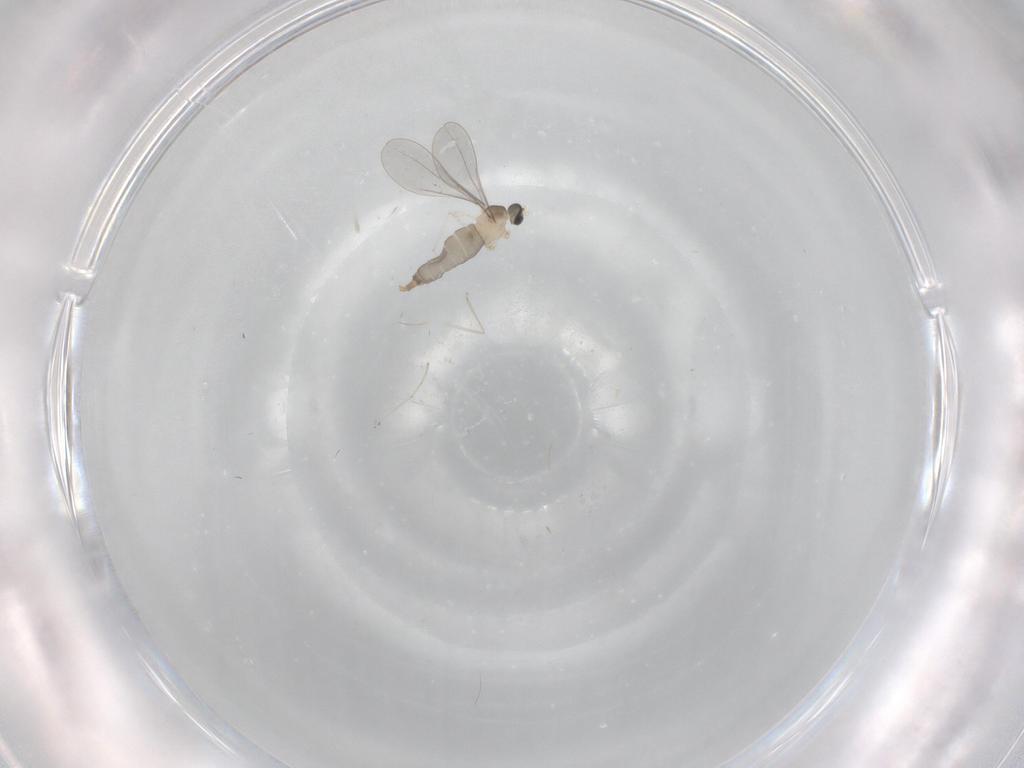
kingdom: Animalia
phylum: Arthropoda
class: Insecta
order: Diptera
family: Cecidomyiidae
